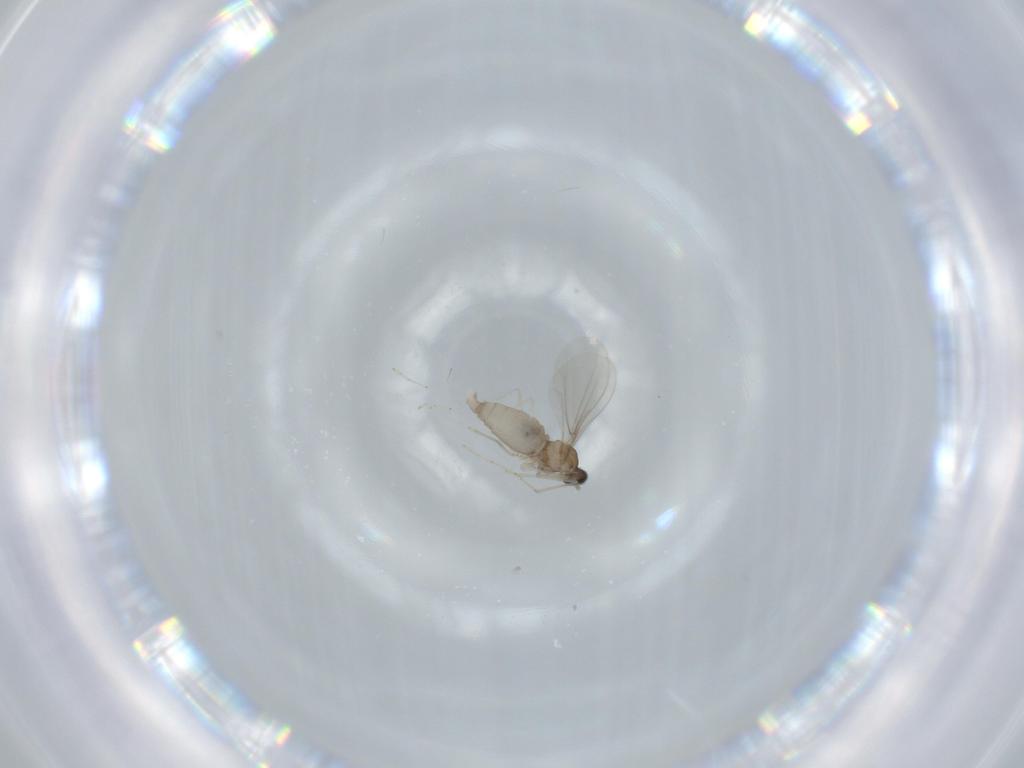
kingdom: Animalia
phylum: Arthropoda
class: Insecta
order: Diptera
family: Cecidomyiidae
